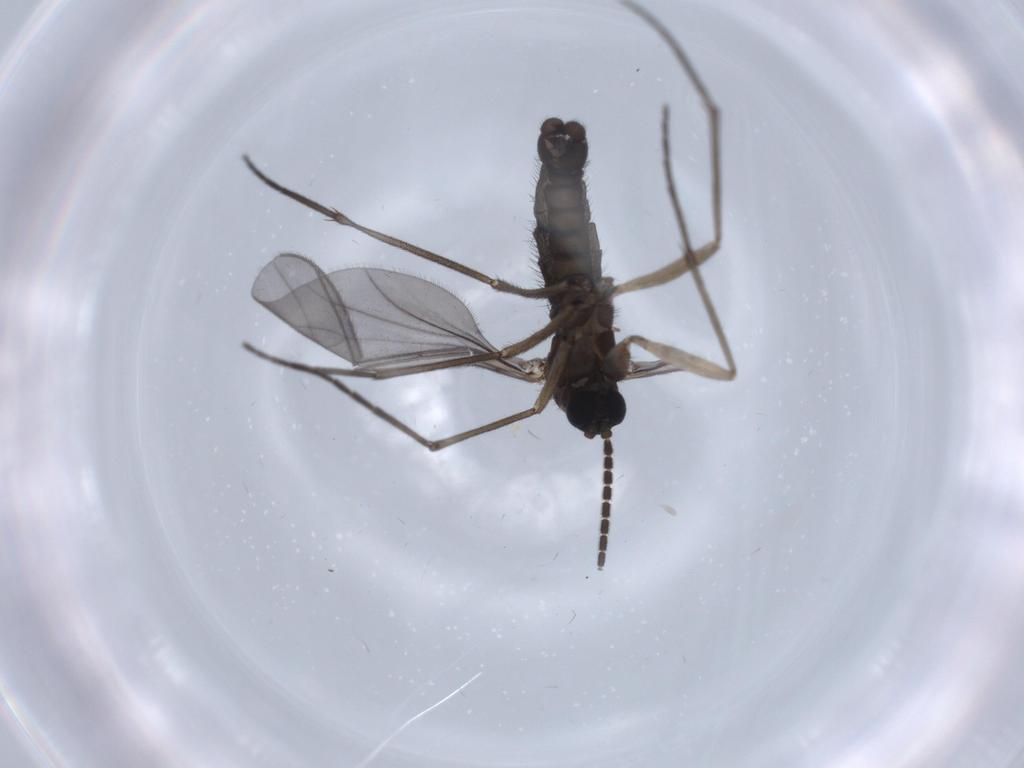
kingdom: Animalia
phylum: Arthropoda
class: Insecta
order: Diptera
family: Sciaridae
